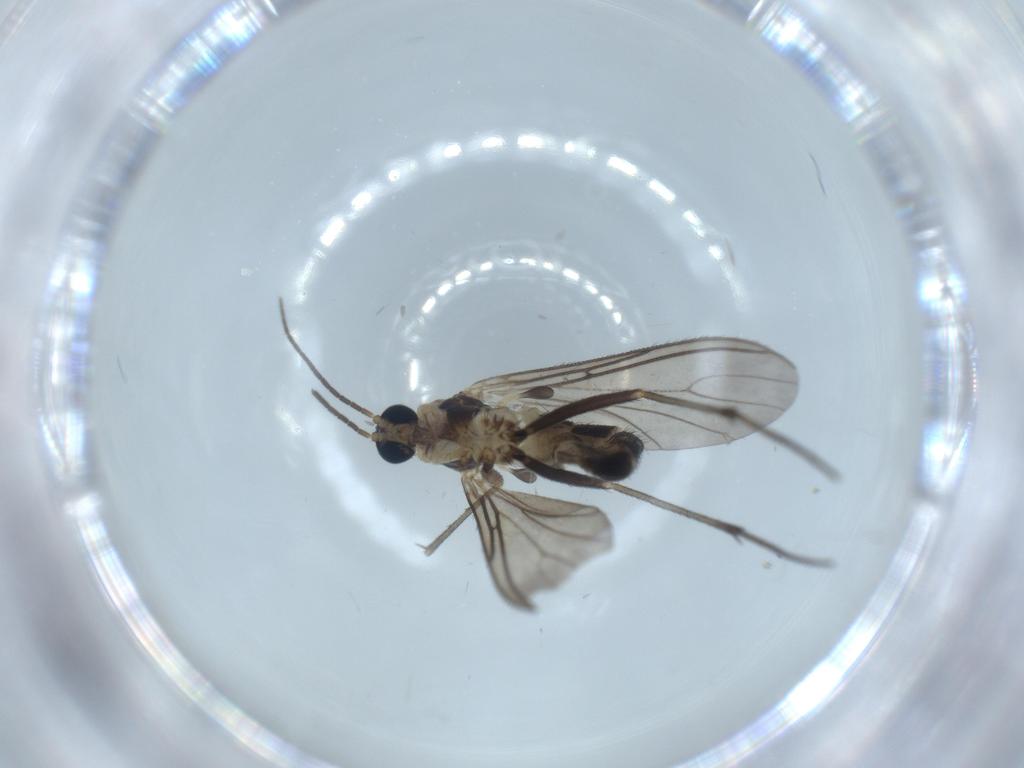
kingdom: Animalia
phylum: Arthropoda
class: Insecta
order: Diptera
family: Sciaridae
